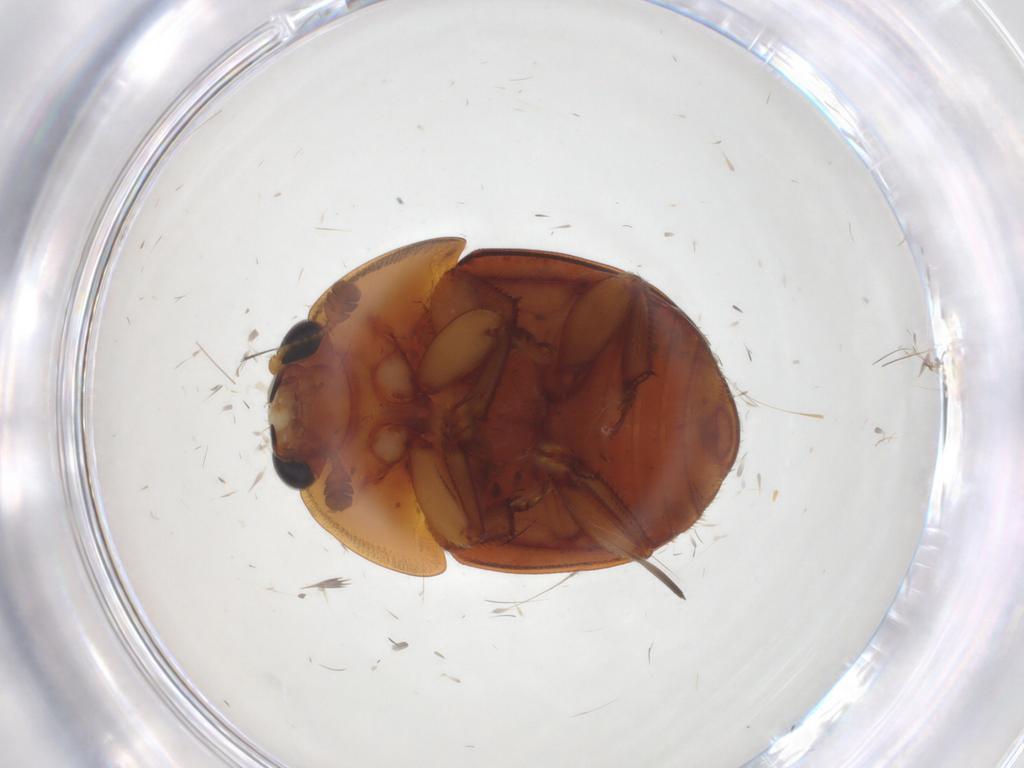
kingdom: Animalia
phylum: Arthropoda
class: Insecta
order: Coleoptera
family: Nitidulidae
